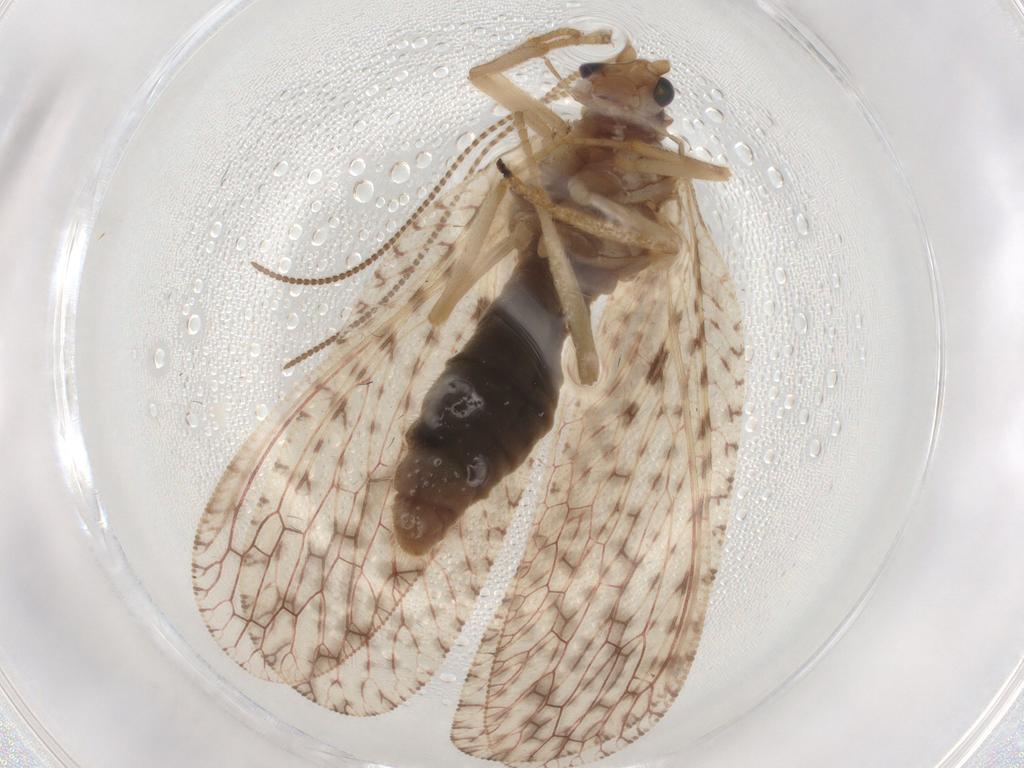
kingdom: Animalia
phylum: Arthropoda
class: Insecta
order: Neuroptera
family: Hemerobiidae
